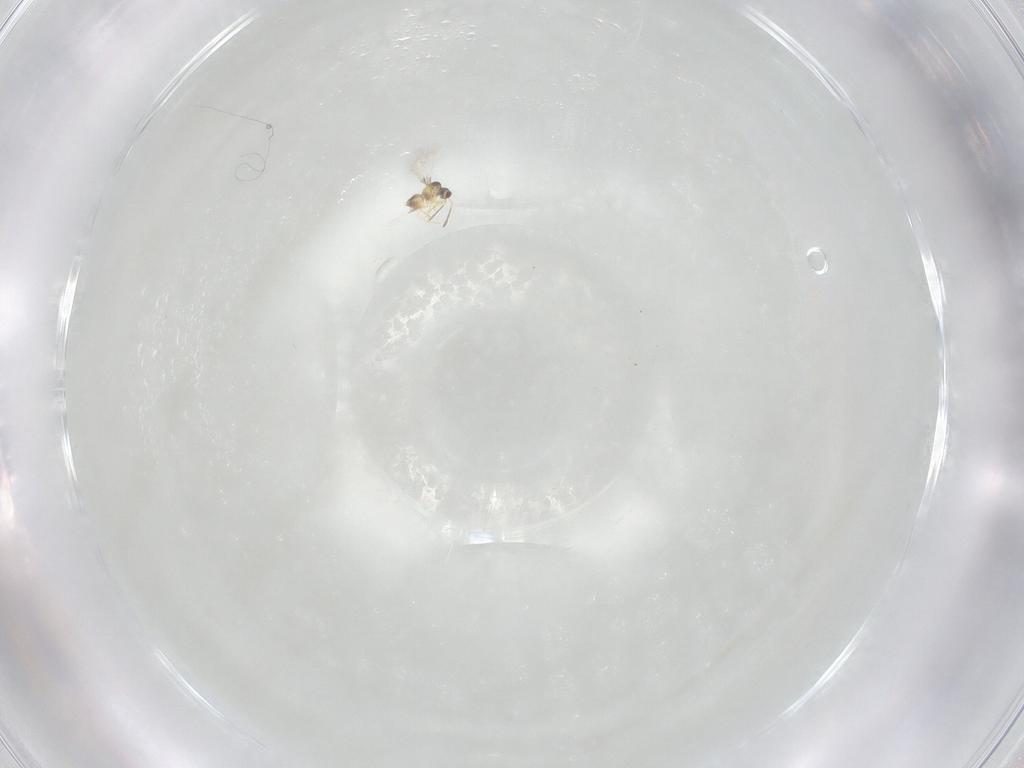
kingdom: Animalia
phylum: Arthropoda
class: Insecta
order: Hymenoptera
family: Mymaridae
